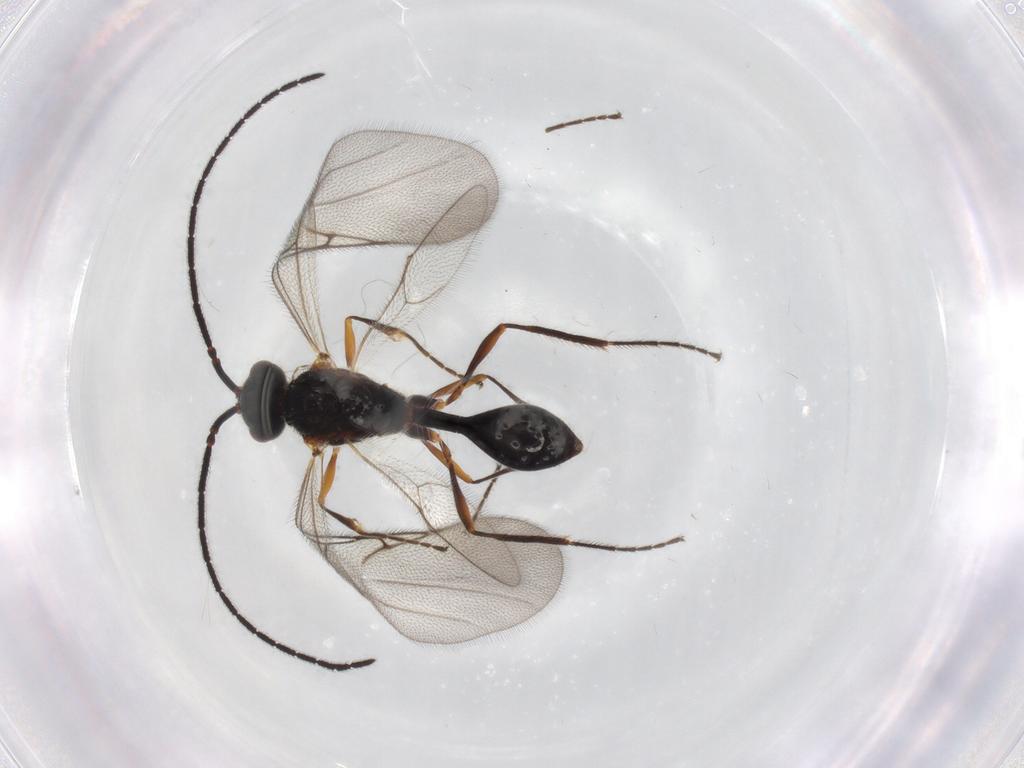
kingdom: Animalia
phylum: Arthropoda
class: Insecta
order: Hymenoptera
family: Diapriidae
